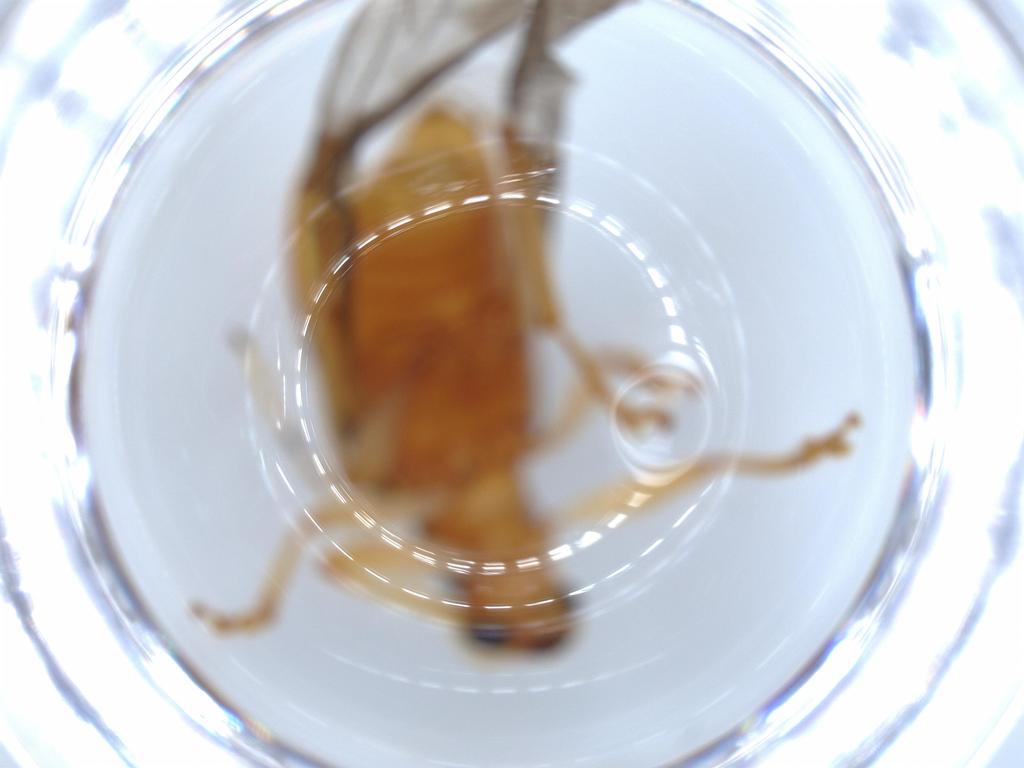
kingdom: Animalia
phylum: Arthropoda
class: Insecta
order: Coleoptera
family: Chrysomelidae
